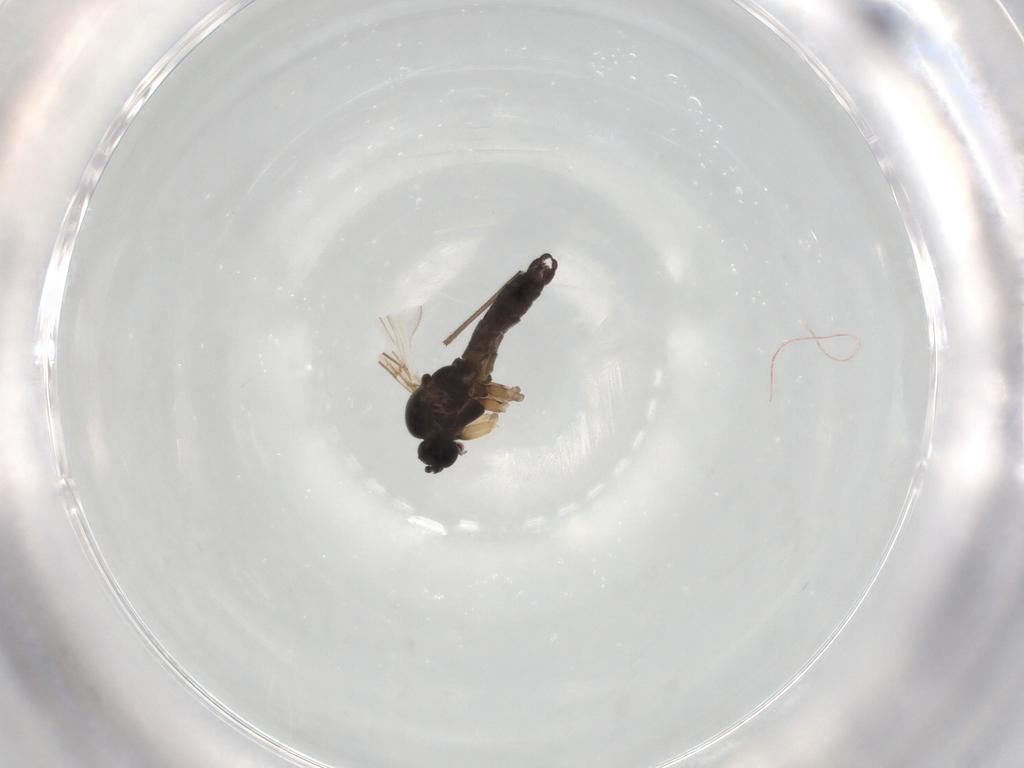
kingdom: Animalia
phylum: Arthropoda
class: Insecta
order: Diptera
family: Chironomidae
